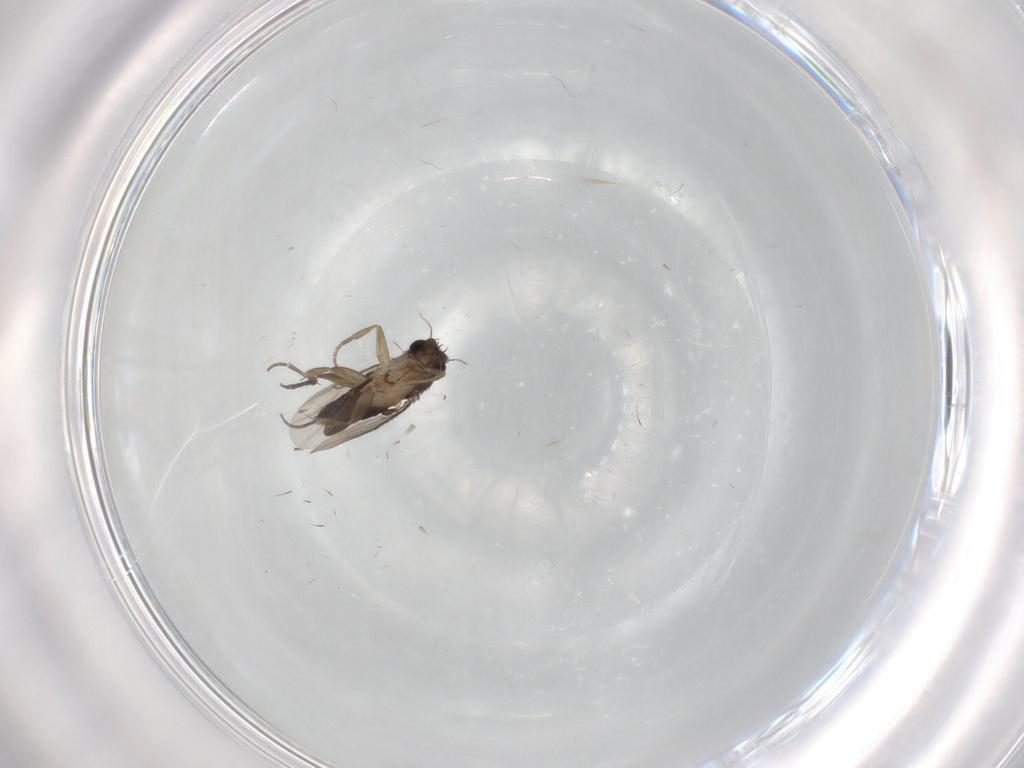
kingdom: Animalia
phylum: Arthropoda
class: Insecta
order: Diptera
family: Phoridae
